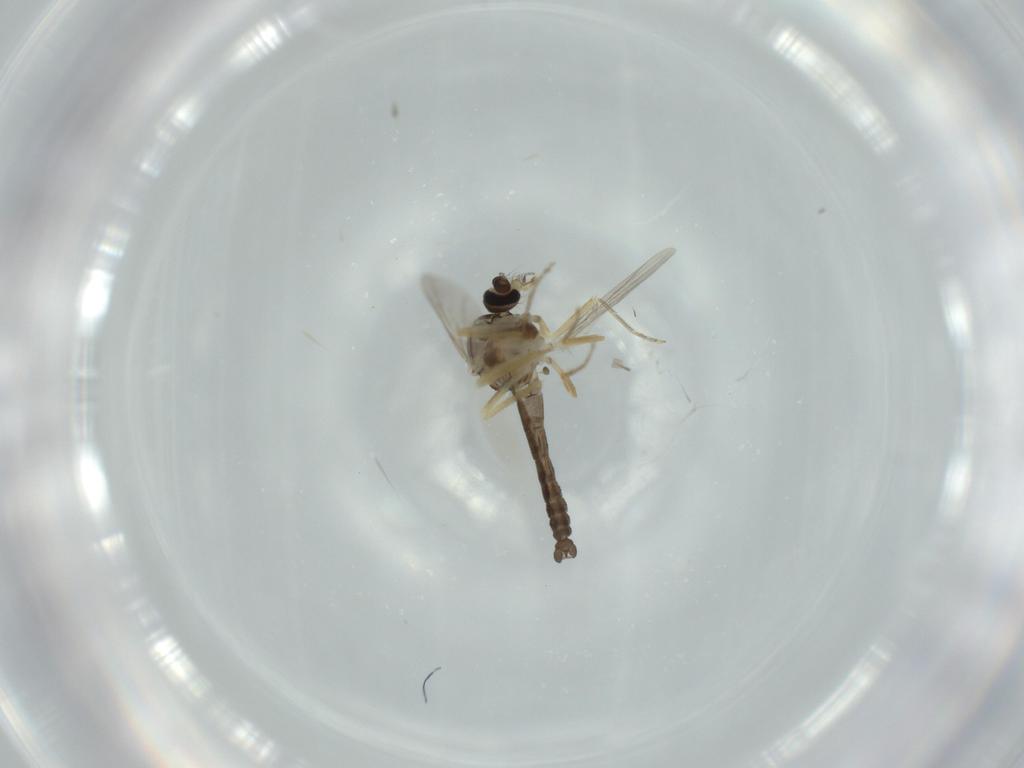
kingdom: Animalia
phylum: Arthropoda
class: Insecta
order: Diptera
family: Ceratopogonidae
